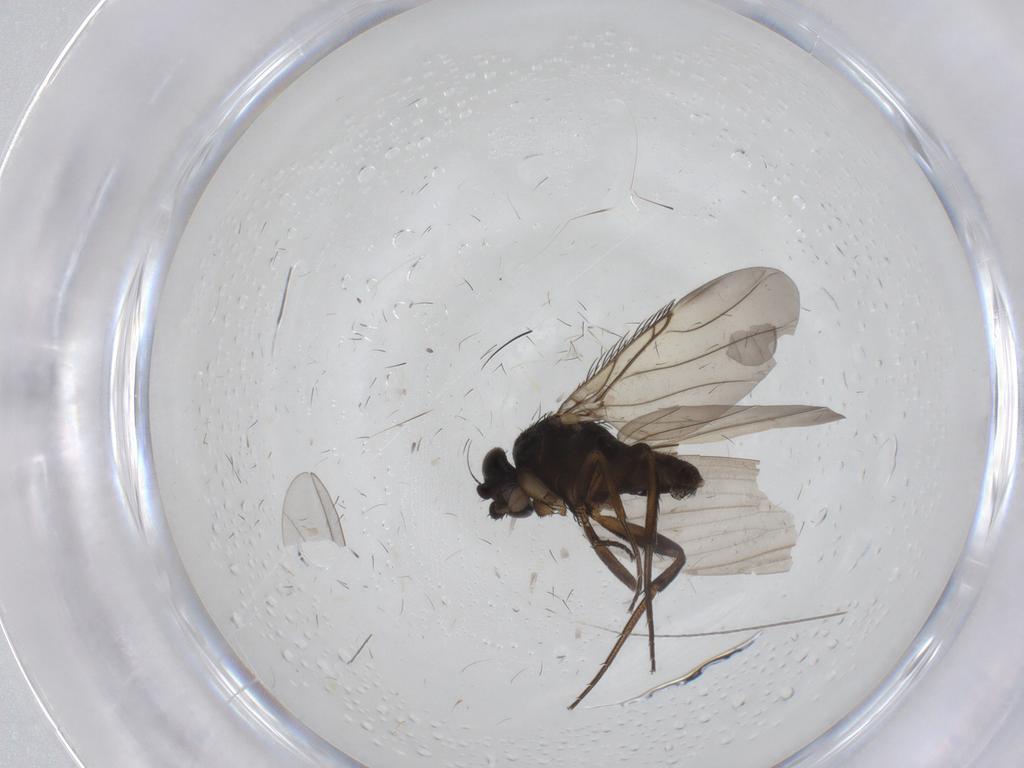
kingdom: Animalia
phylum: Arthropoda
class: Insecta
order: Diptera
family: Phoridae
